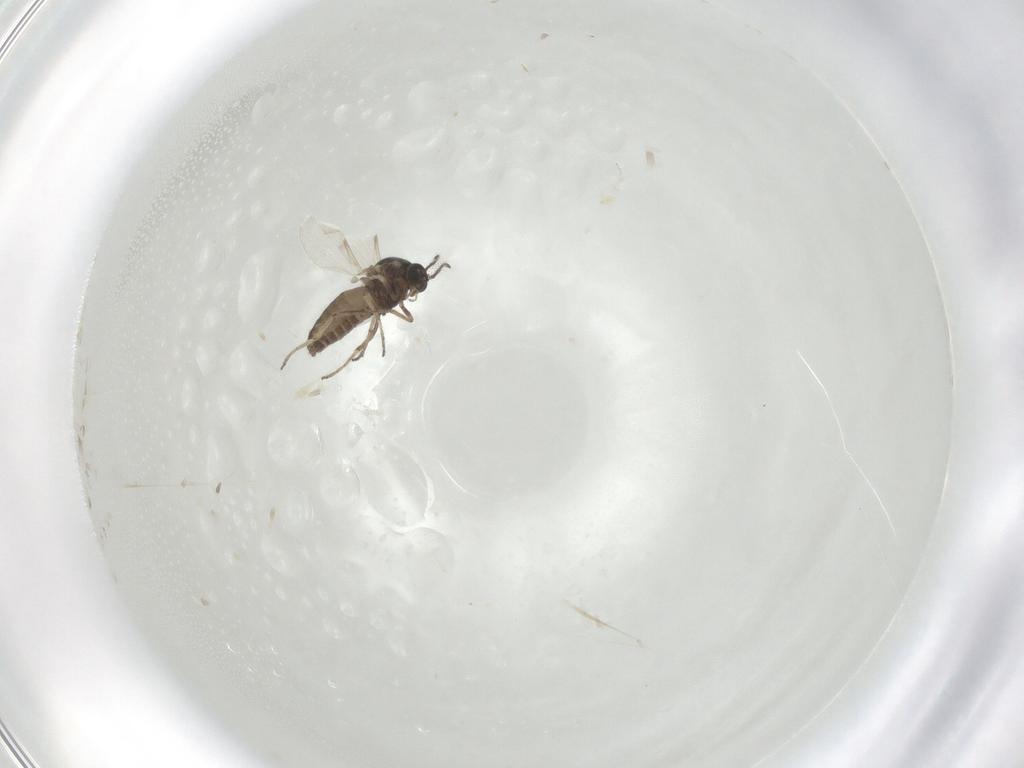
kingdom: Animalia
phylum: Arthropoda
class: Insecta
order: Diptera
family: Ceratopogonidae
